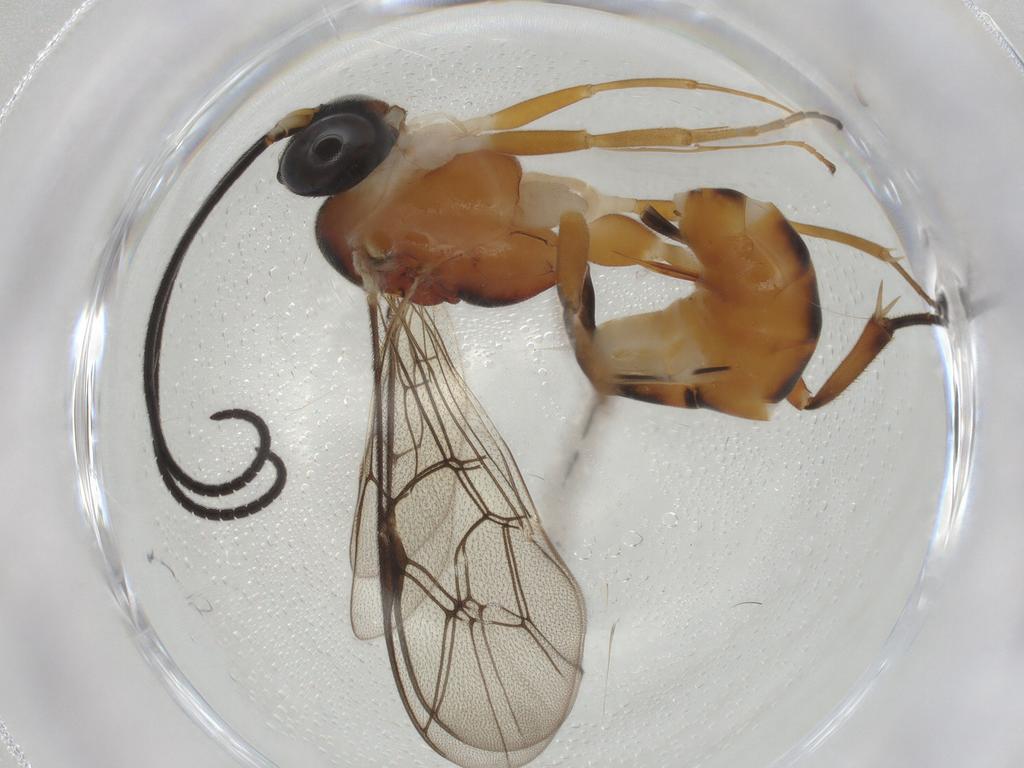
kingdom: Animalia
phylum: Arthropoda
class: Insecta
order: Hymenoptera
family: Ichneumonidae
